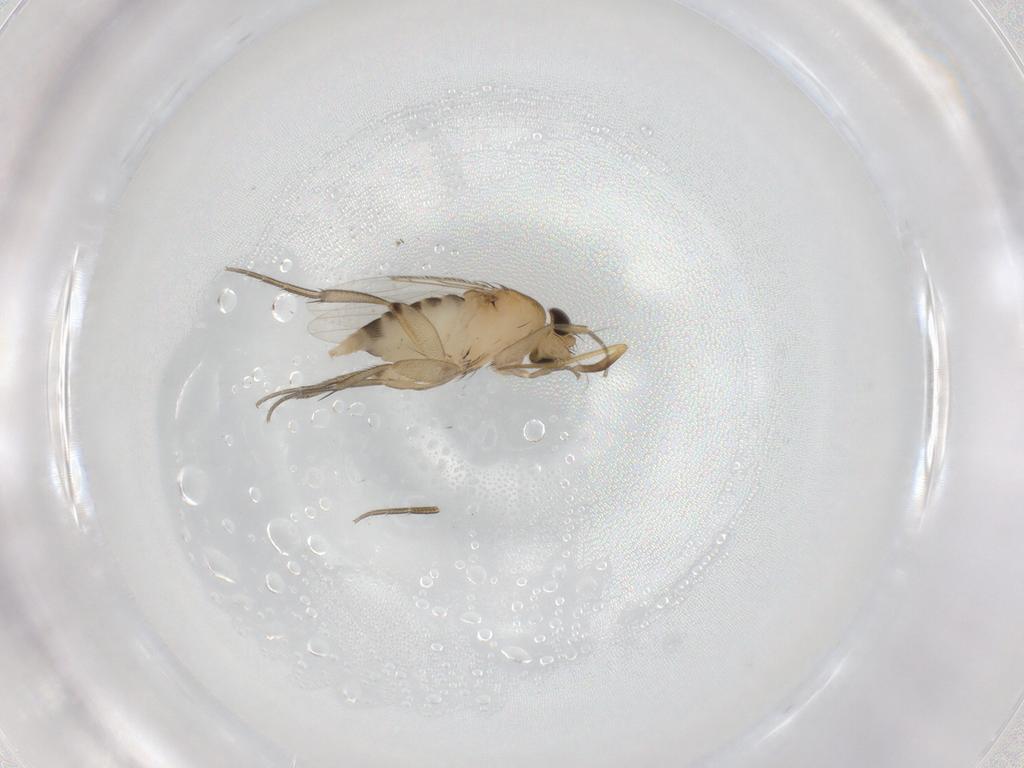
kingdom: Animalia
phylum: Arthropoda
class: Insecta
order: Diptera
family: Dolichopodidae
